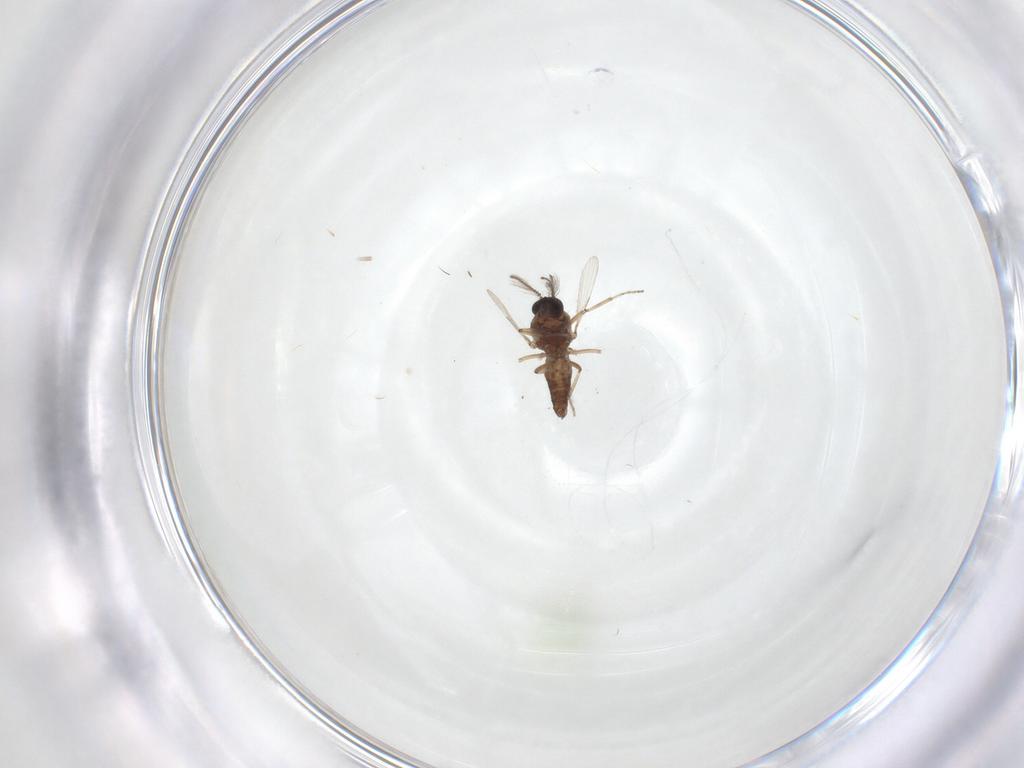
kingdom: Animalia
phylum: Arthropoda
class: Insecta
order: Diptera
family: Ceratopogonidae
